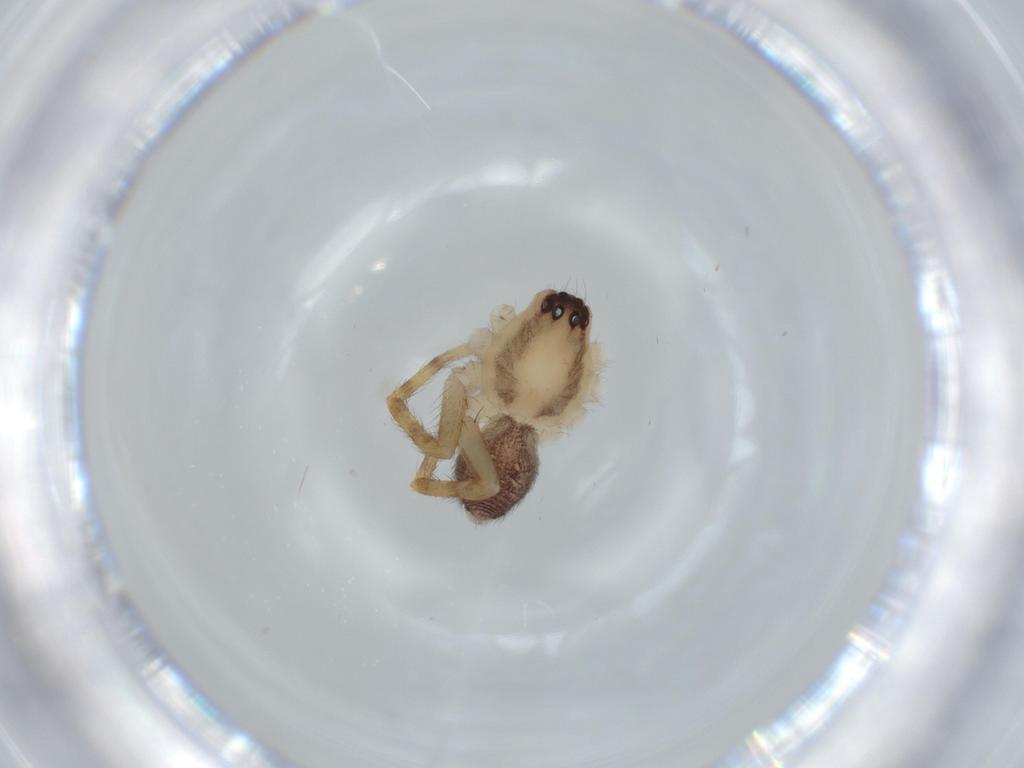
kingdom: Animalia
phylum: Arthropoda
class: Arachnida
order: Araneae
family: Corinnidae
